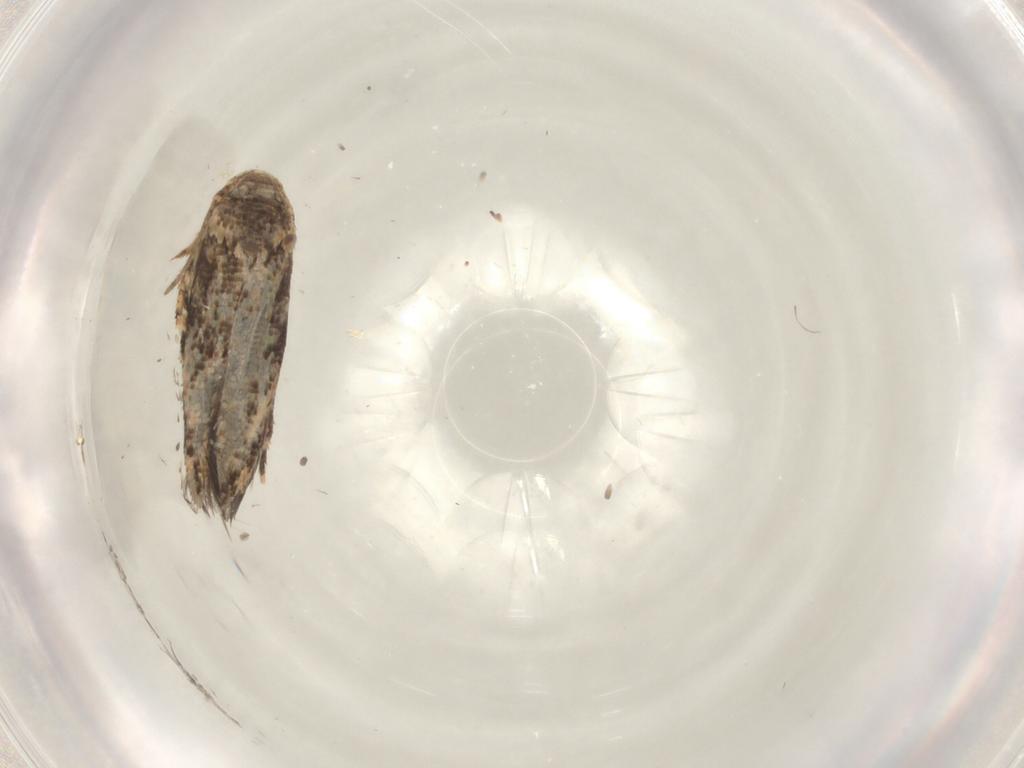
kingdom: Animalia
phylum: Arthropoda
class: Insecta
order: Lepidoptera
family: Momphidae
